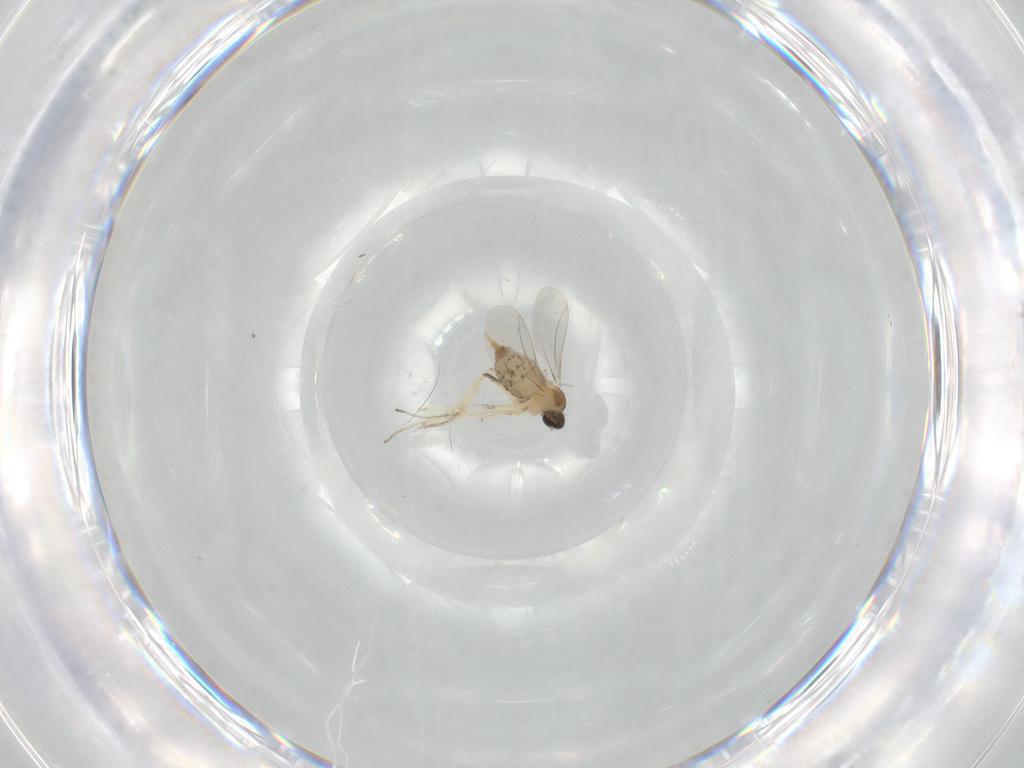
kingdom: Animalia
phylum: Arthropoda
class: Insecta
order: Diptera
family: Cecidomyiidae
